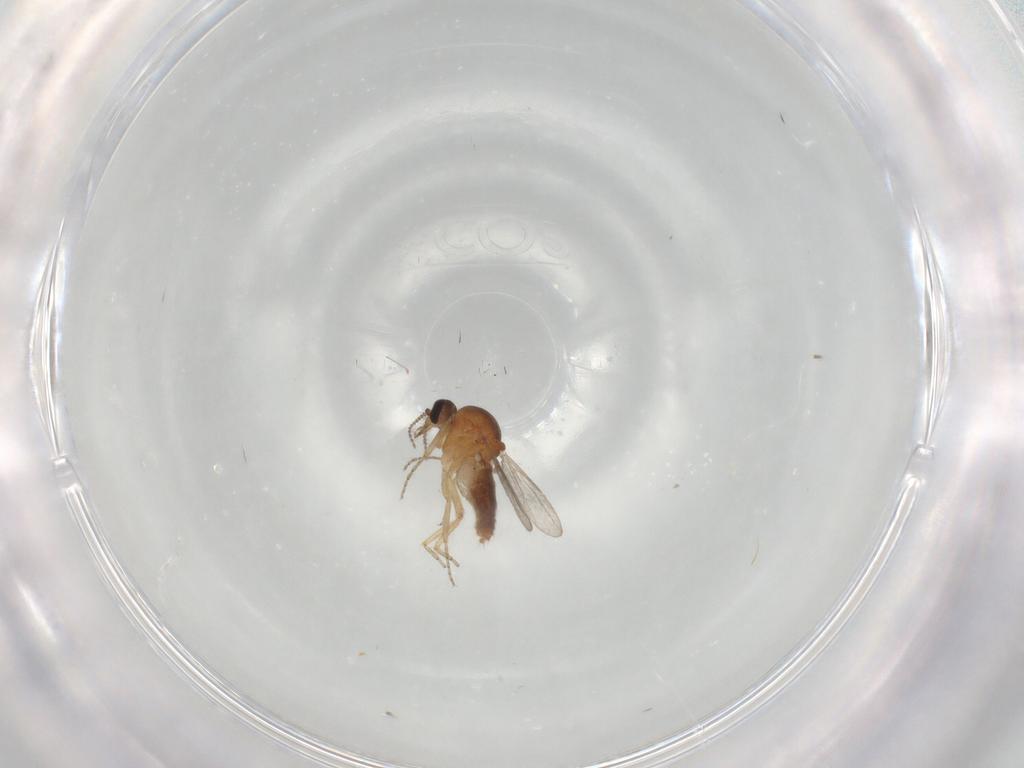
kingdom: Animalia
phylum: Arthropoda
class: Insecta
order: Diptera
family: Ceratopogonidae
